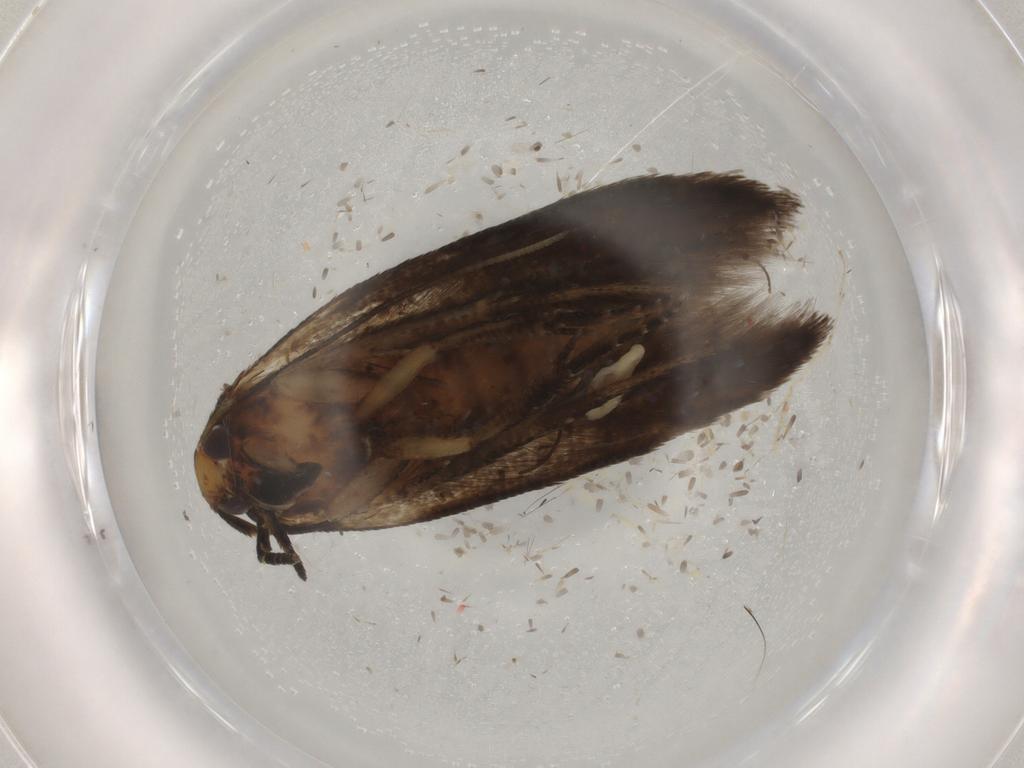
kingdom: Animalia
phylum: Arthropoda
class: Insecta
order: Lepidoptera
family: Cosmopterigidae
